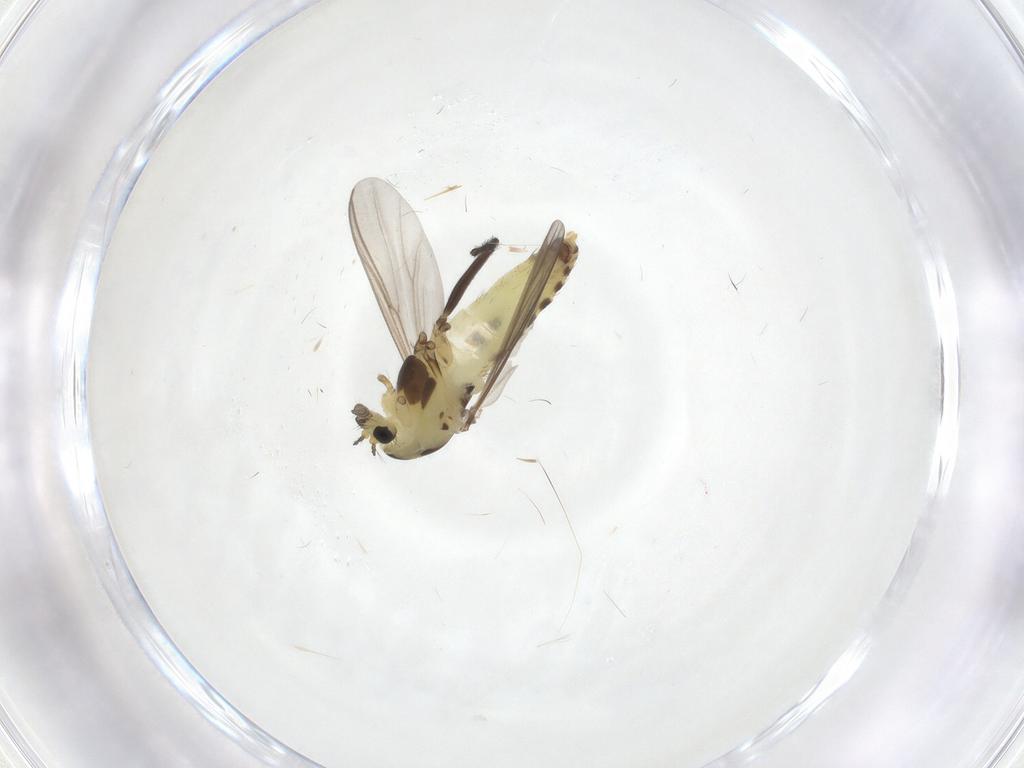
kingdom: Animalia
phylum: Arthropoda
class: Insecta
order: Diptera
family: Chironomidae
